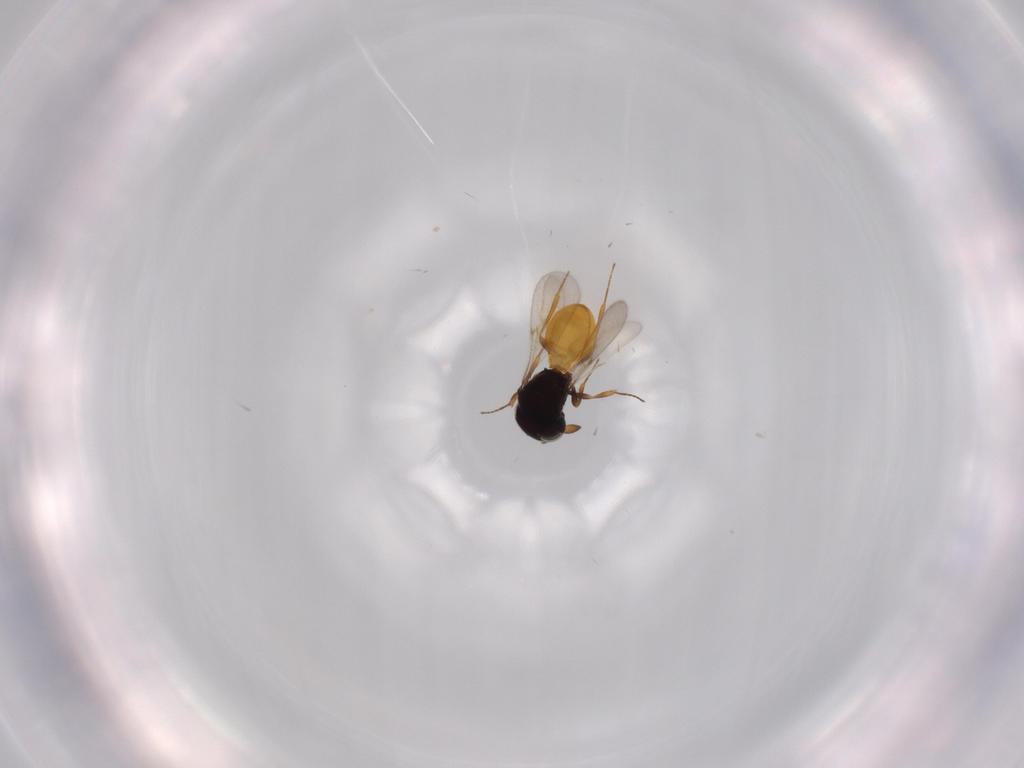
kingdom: Animalia
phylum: Arthropoda
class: Insecta
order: Hymenoptera
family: Scelionidae
